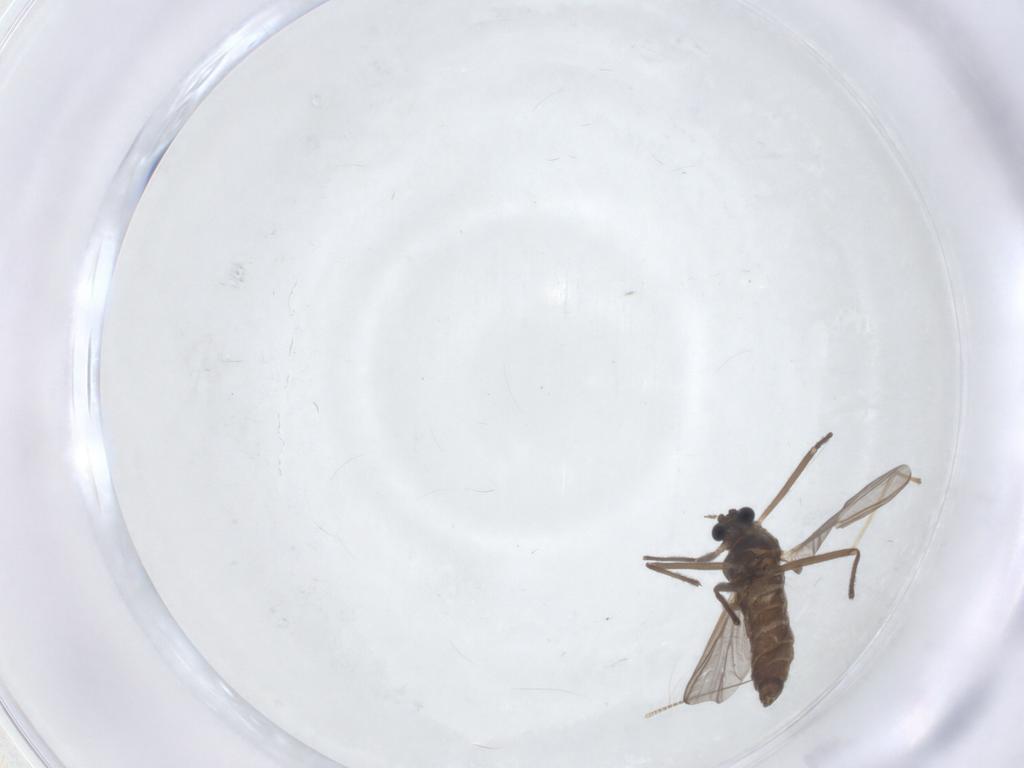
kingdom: Animalia
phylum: Arthropoda
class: Insecta
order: Diptera
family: Chironomidae
